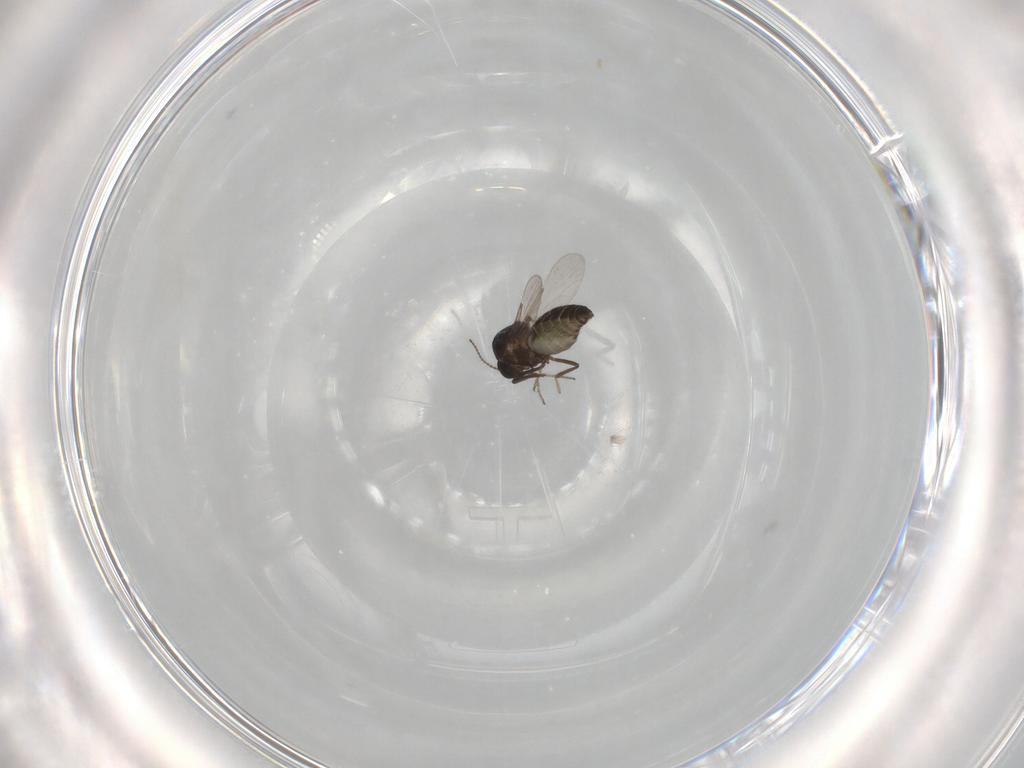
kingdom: Animalia
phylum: Arthropoda
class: Insecta
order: Diptera
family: Ceratopogonidae
